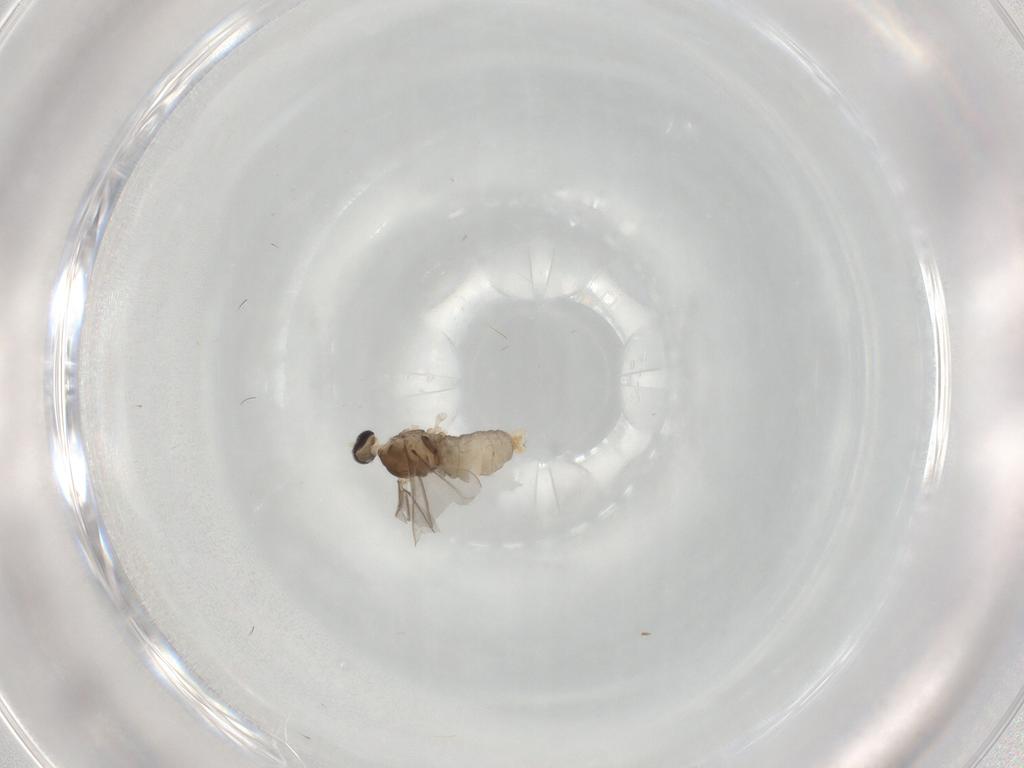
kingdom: Animalia
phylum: Arthropoda
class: Insecta
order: Diptera
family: Cecidomyiidae
